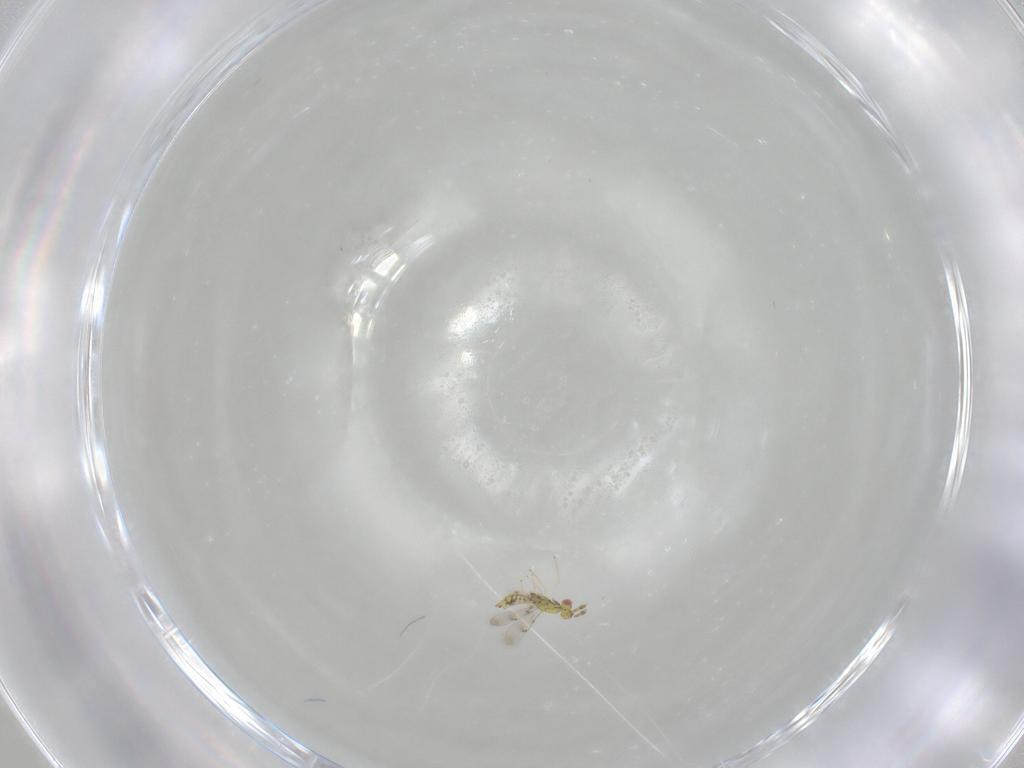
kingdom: Animalia
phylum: Arthropoda
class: Insecta
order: Hymenoptera
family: Eulophidae
